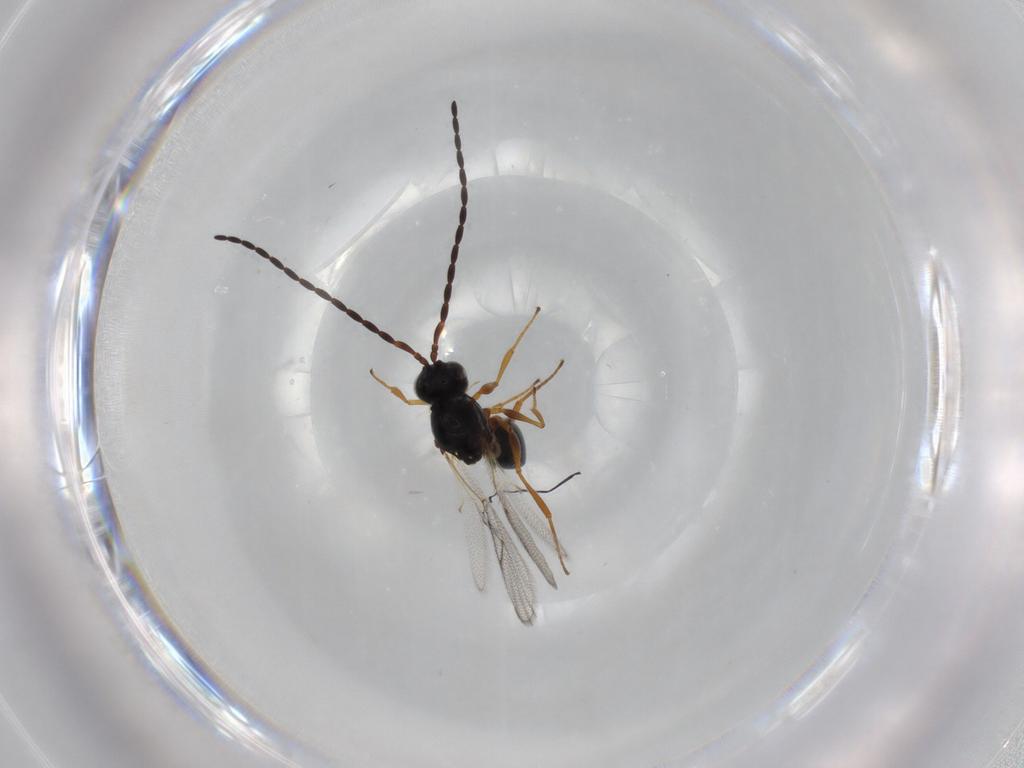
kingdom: Animalia
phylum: Arthropoda
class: Insecta
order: Hymenoptera
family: Figitidae
